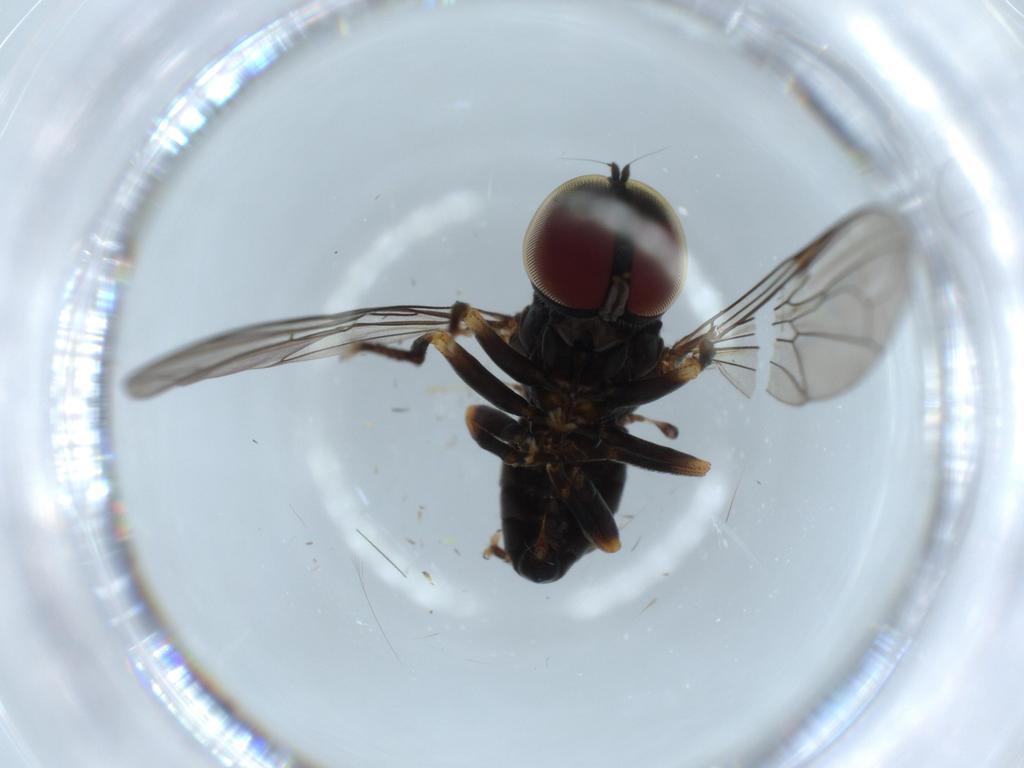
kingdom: Animalia
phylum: Arthropoda
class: Insecta
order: Diptera
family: Pipunculidae
